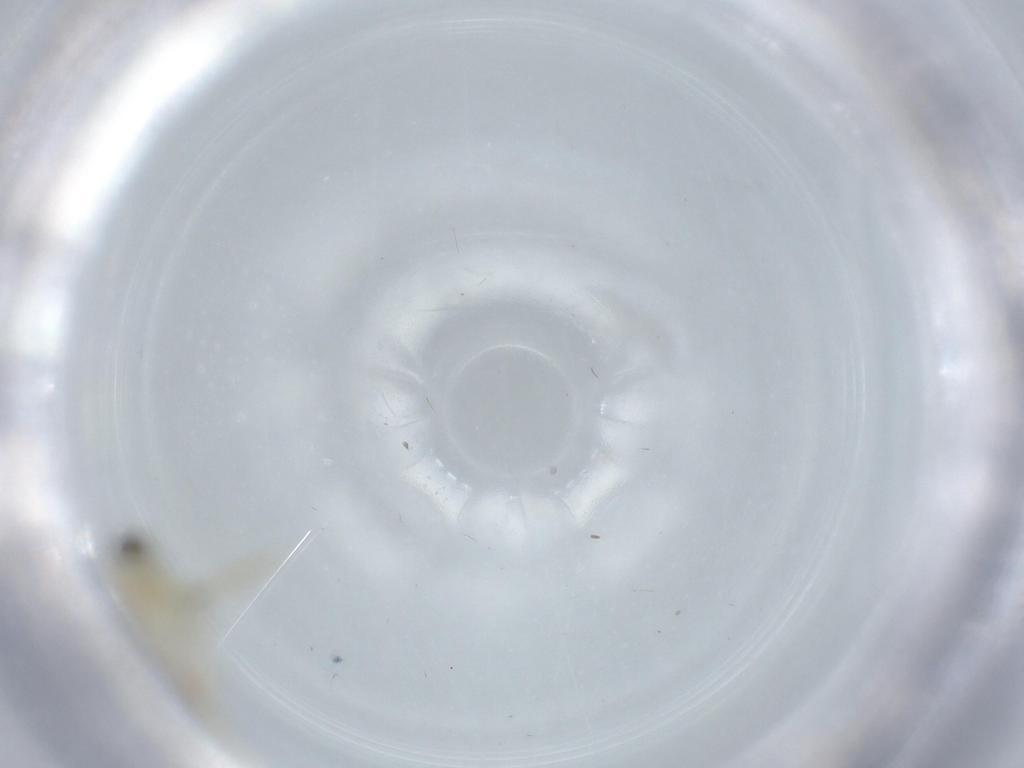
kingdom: Animalia
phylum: Arthropoda
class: Insecta
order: Diptera
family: Chironomidae
